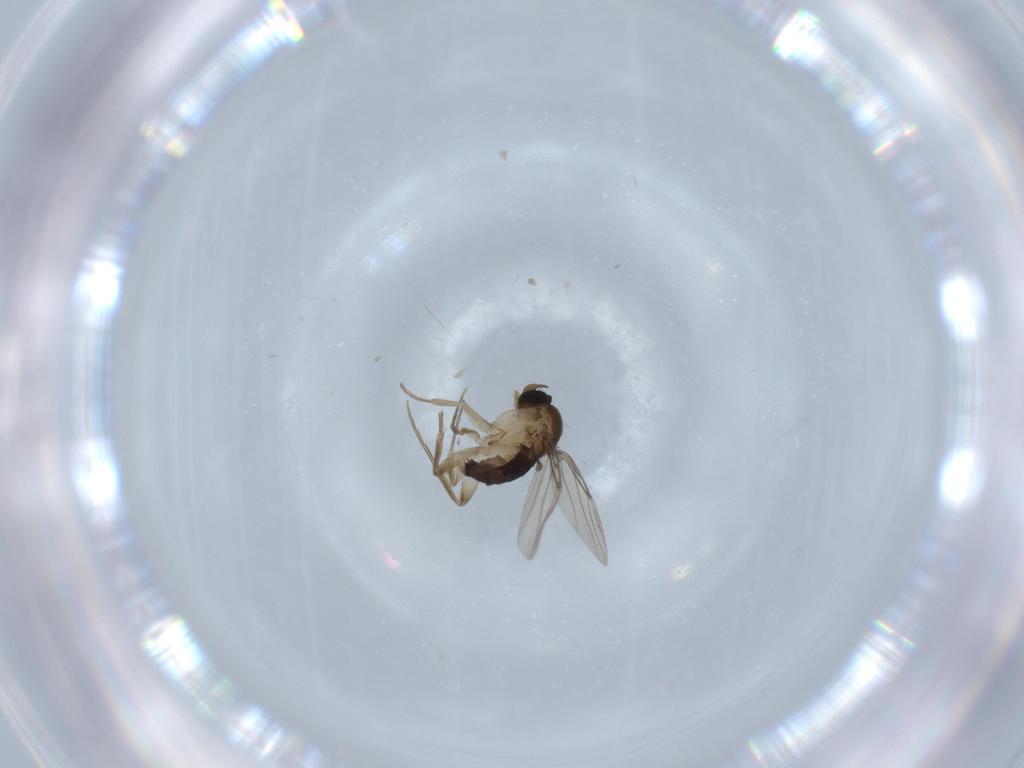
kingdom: Animalia
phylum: Arthropoda
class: Insecta
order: Diptera
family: Phoridae
